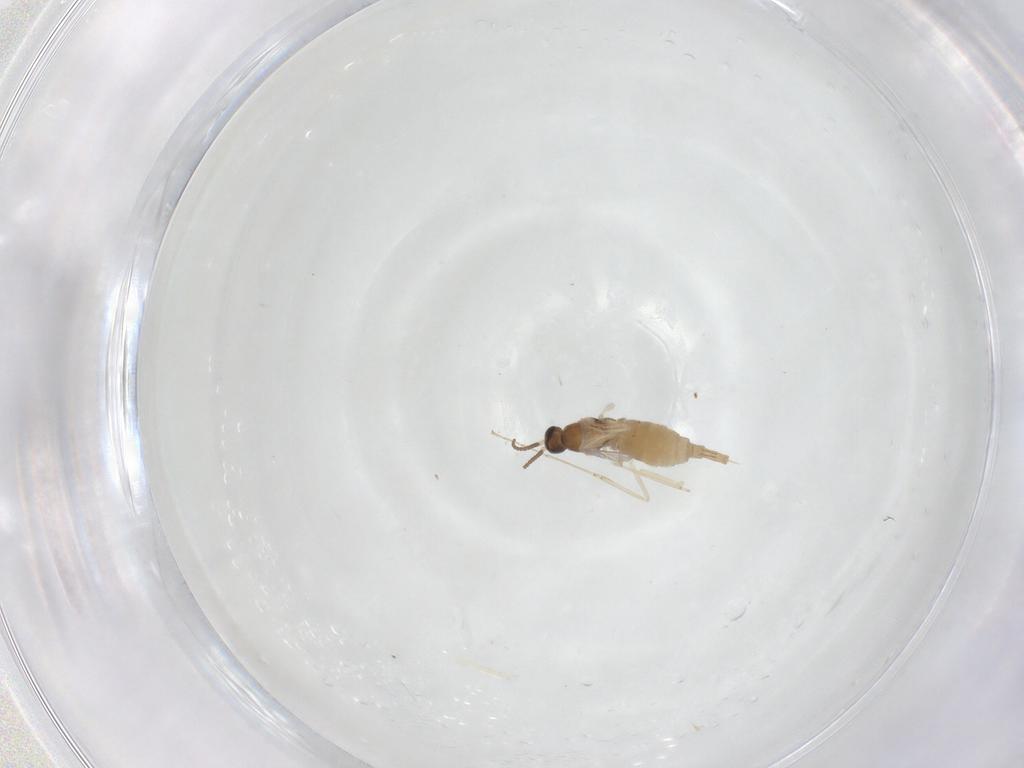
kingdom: Animalia
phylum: Arthropoda
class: Insecta
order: Diptera
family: Cecidomyiidae
